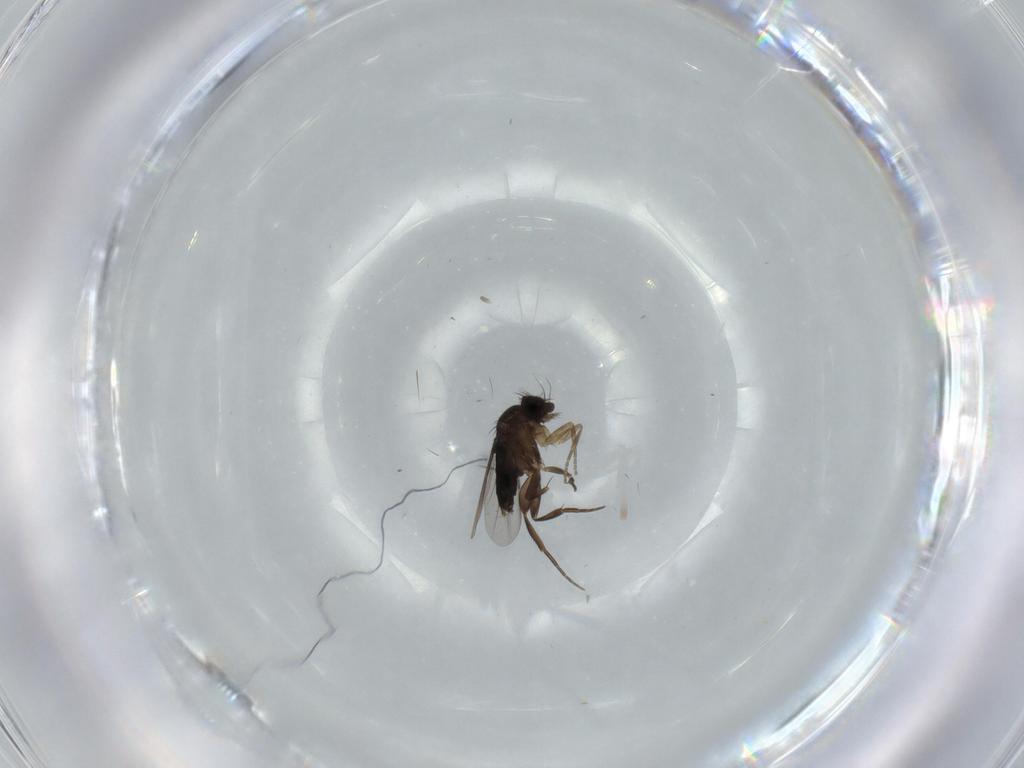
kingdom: Animalia
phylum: Arthropoda
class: Insecta
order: Diptera
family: Phoridae
